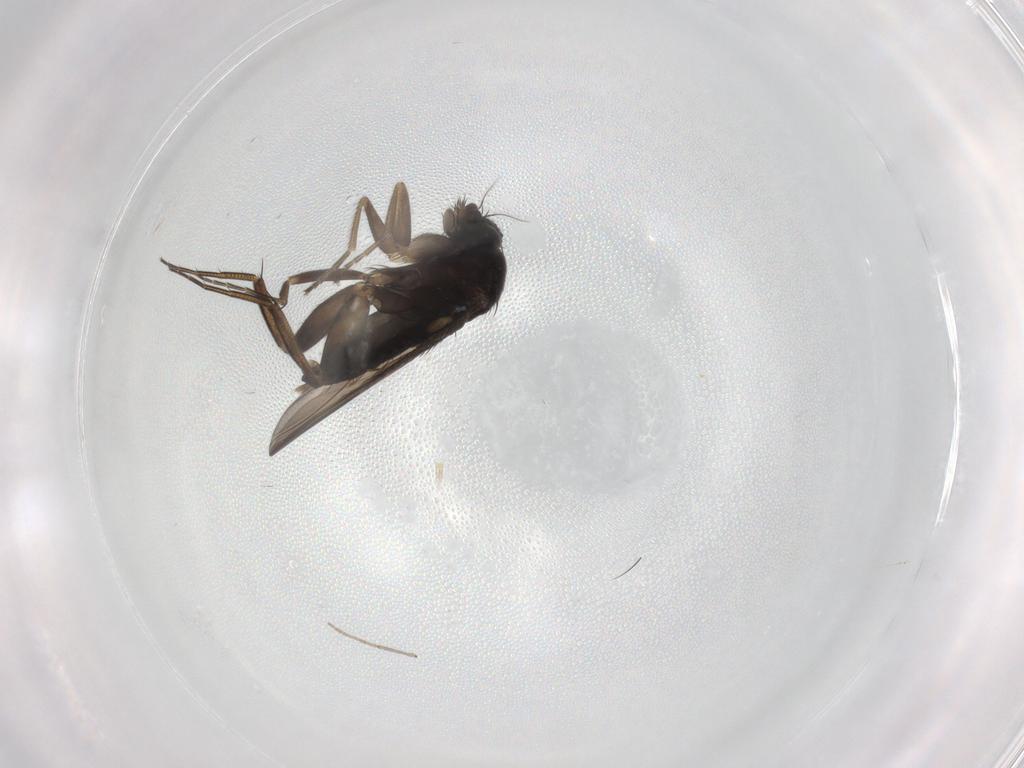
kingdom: Animalia
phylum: Arthropoda
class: Insecta
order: Diptera
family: Phoridae
